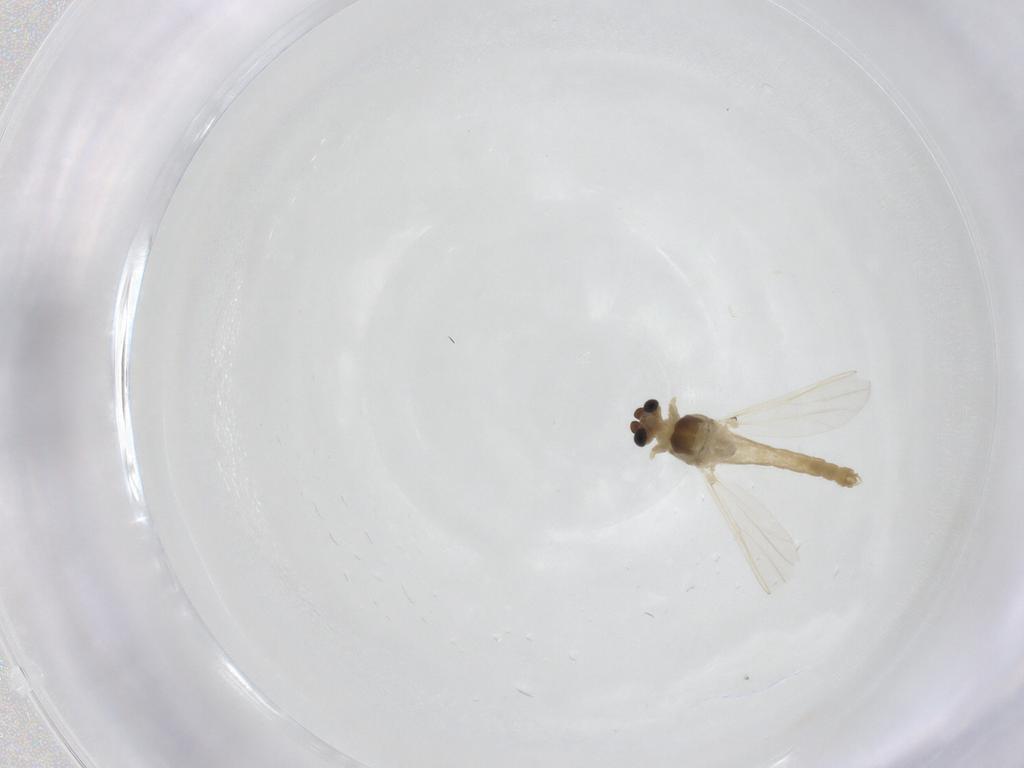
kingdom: Animalia
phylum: Arthropoda
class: Insecta
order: Diptera
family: Chironomidae
